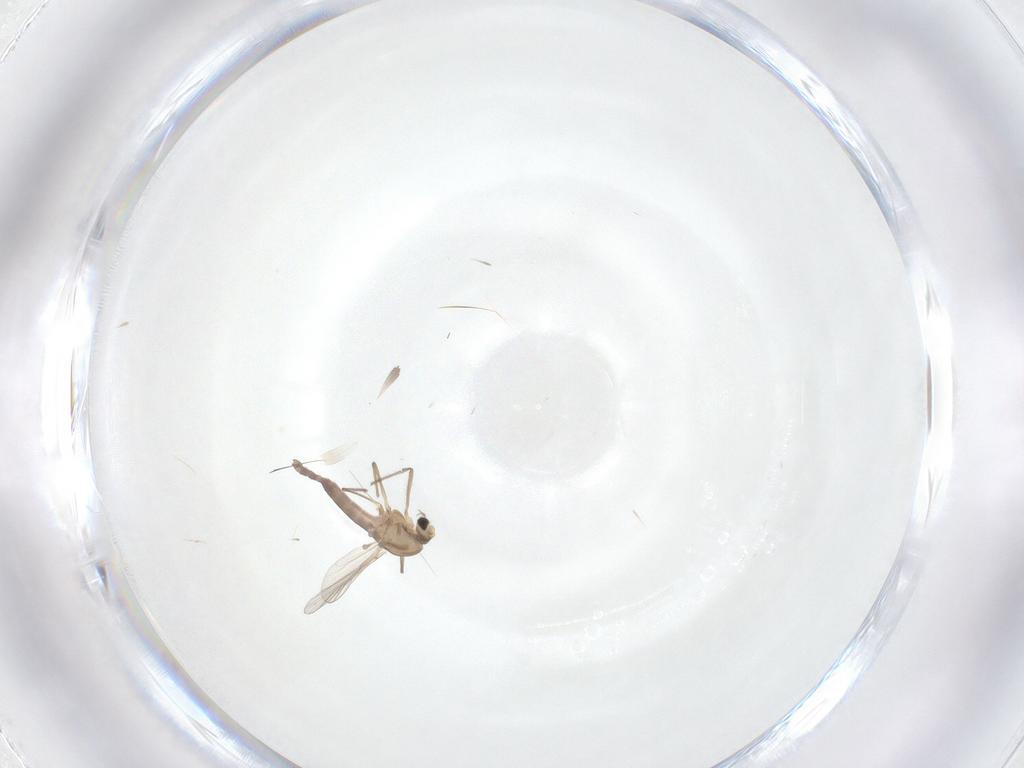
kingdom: Animalia
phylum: Arthropoda
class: Insecta
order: Diptera
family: Chironomidae
